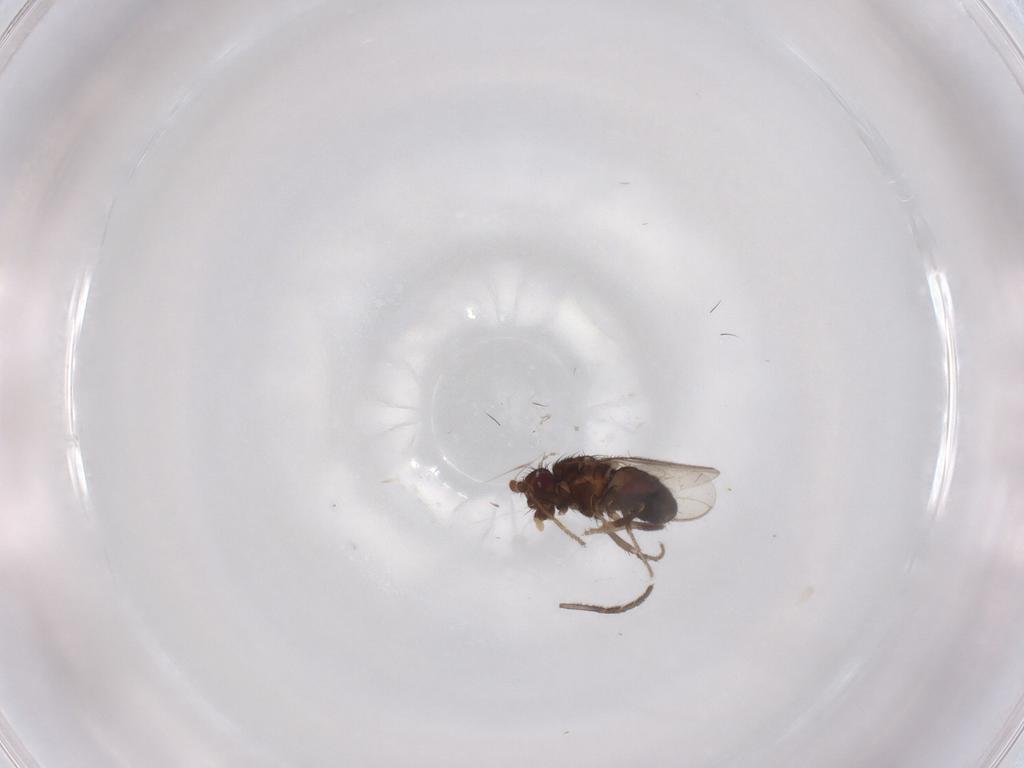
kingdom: Animalia
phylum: Arthropoda
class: Insecta
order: Diptera
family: Sphaeroceridae
